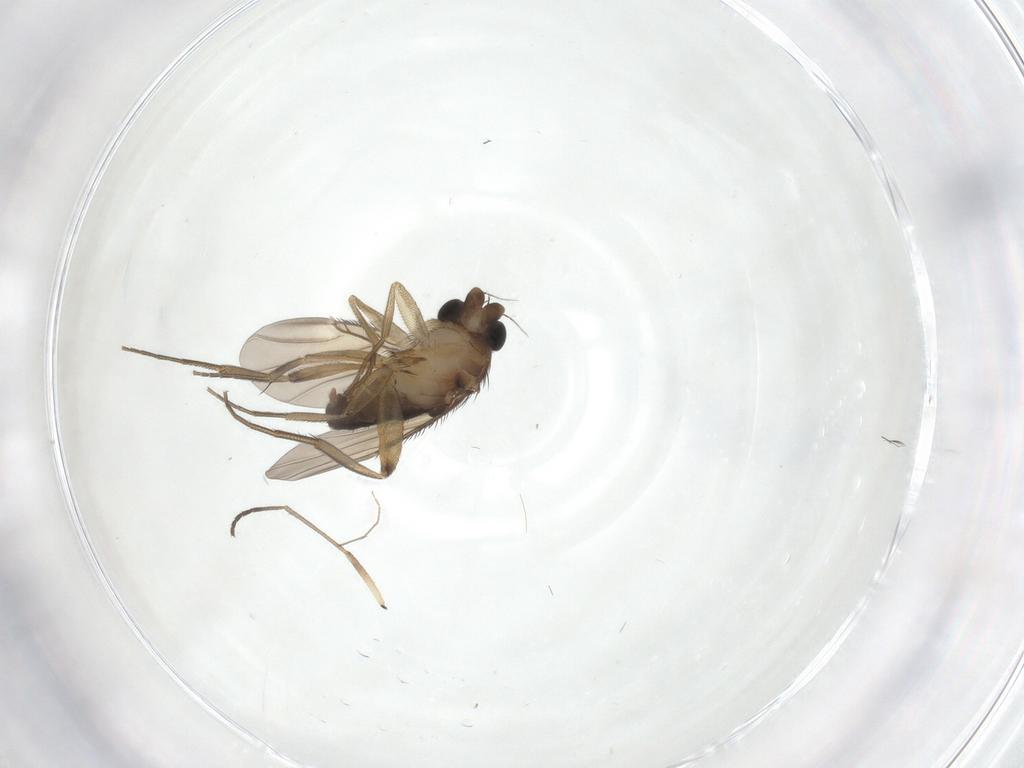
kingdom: Animalia
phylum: Arthropoda
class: Insecta
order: Diptera
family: Phoridae
